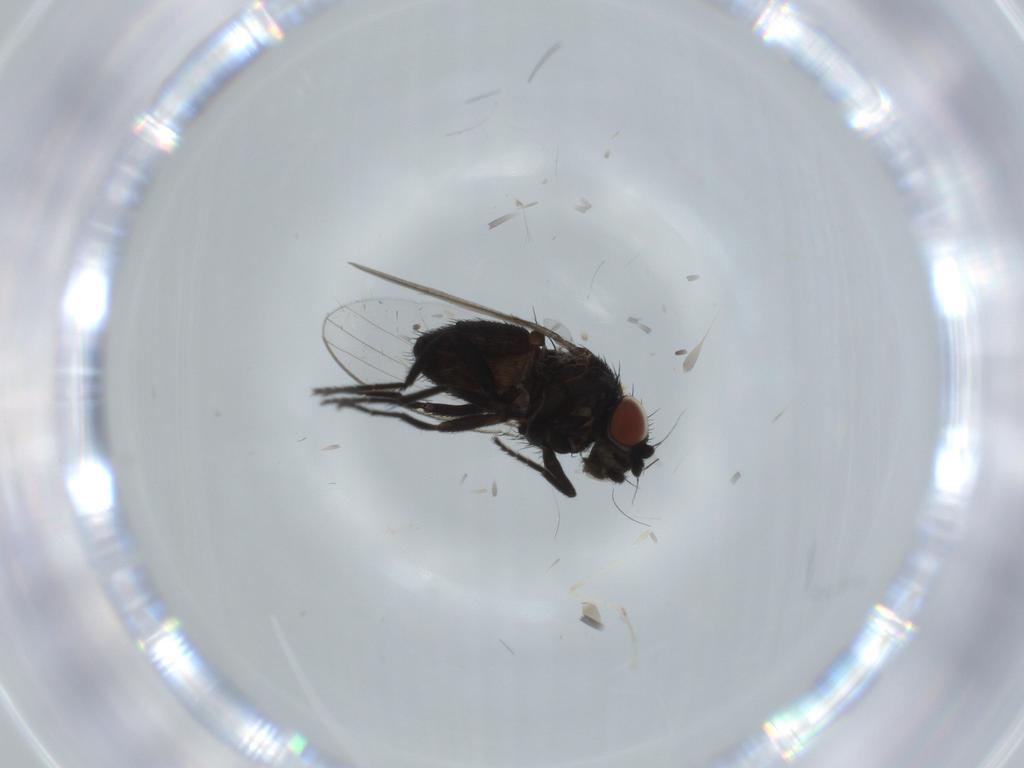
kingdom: Animalia
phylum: Arthropoda
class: Insecta
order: Diptera
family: Milichiidae
